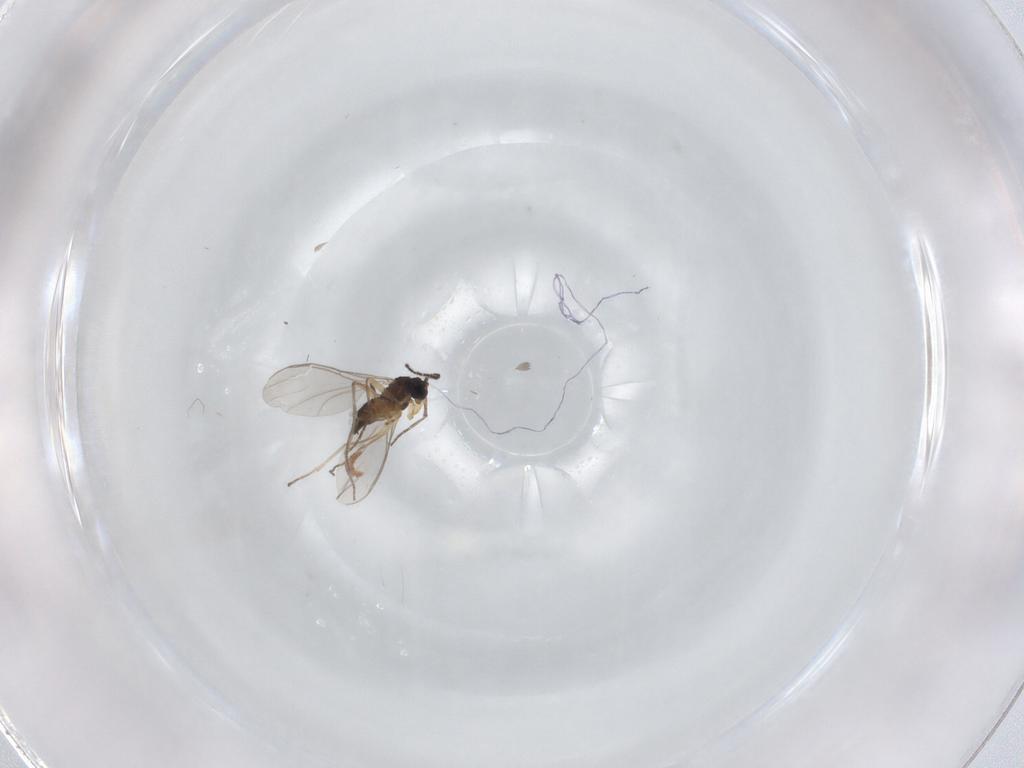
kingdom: Animalia
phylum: Arthropoda
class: Insecta
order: Diptera
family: Sciaridae
